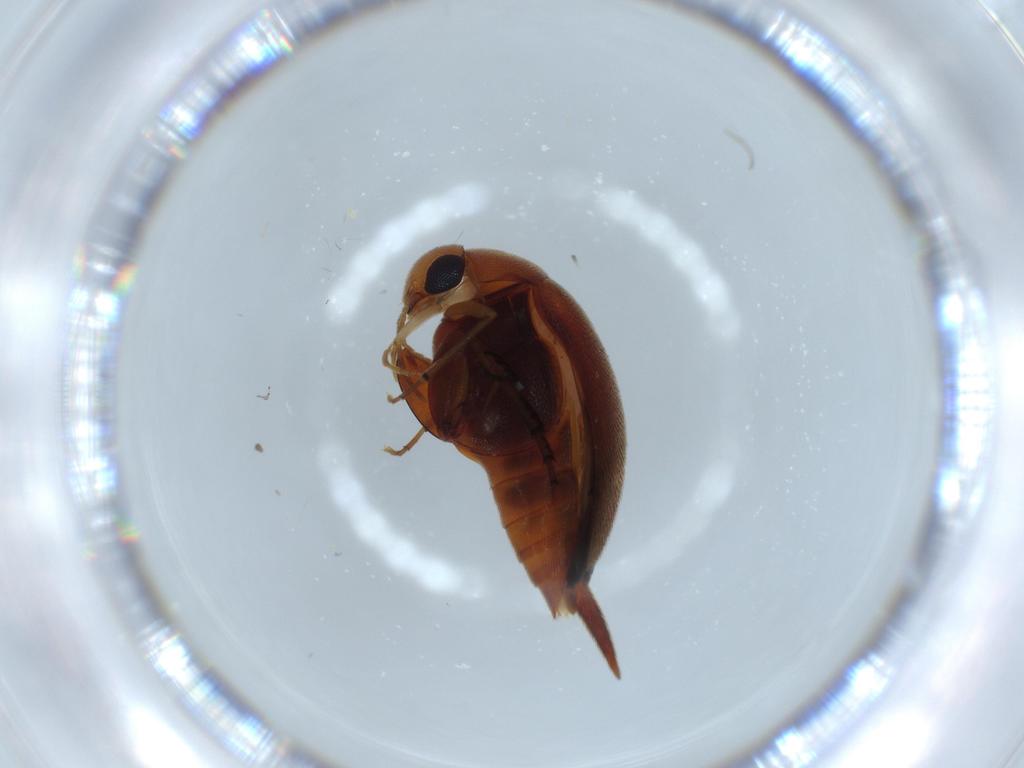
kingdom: Animalia
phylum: Arthropoda
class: Insecta
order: Coleoptera
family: Mordellidae
